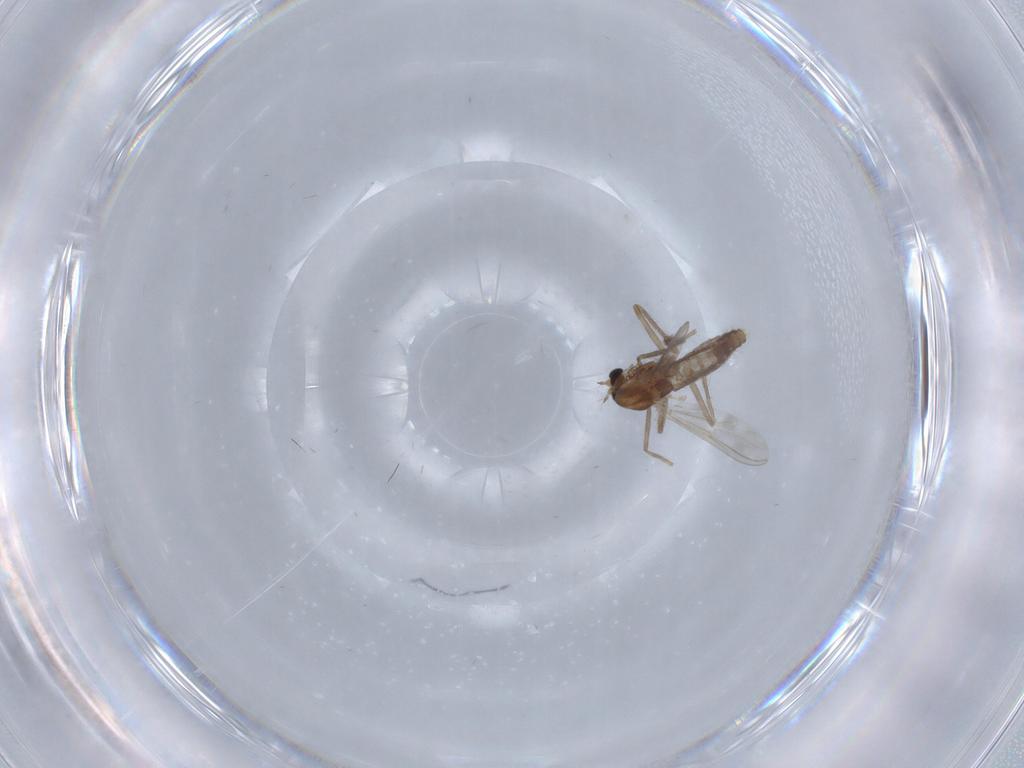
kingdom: Animalia
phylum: Arthropoda
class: Insecta
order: Diptera
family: Chironomidae
